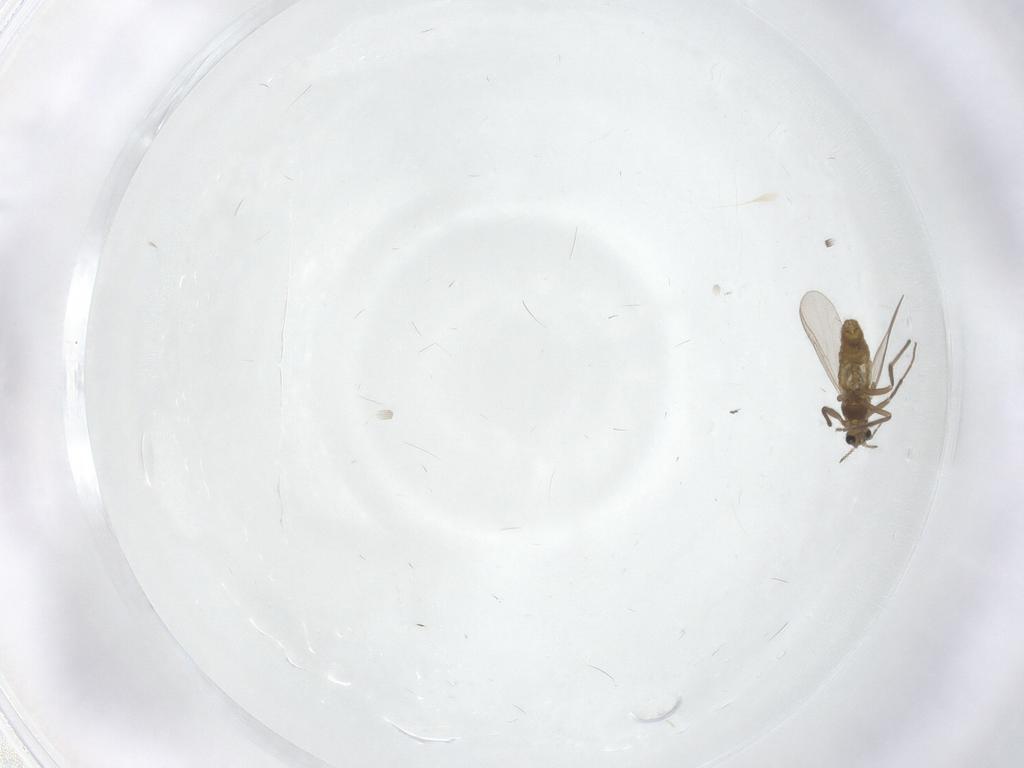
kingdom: Animalia
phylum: Arthropoda
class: Insecta
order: Diptera
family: Chironomidae
